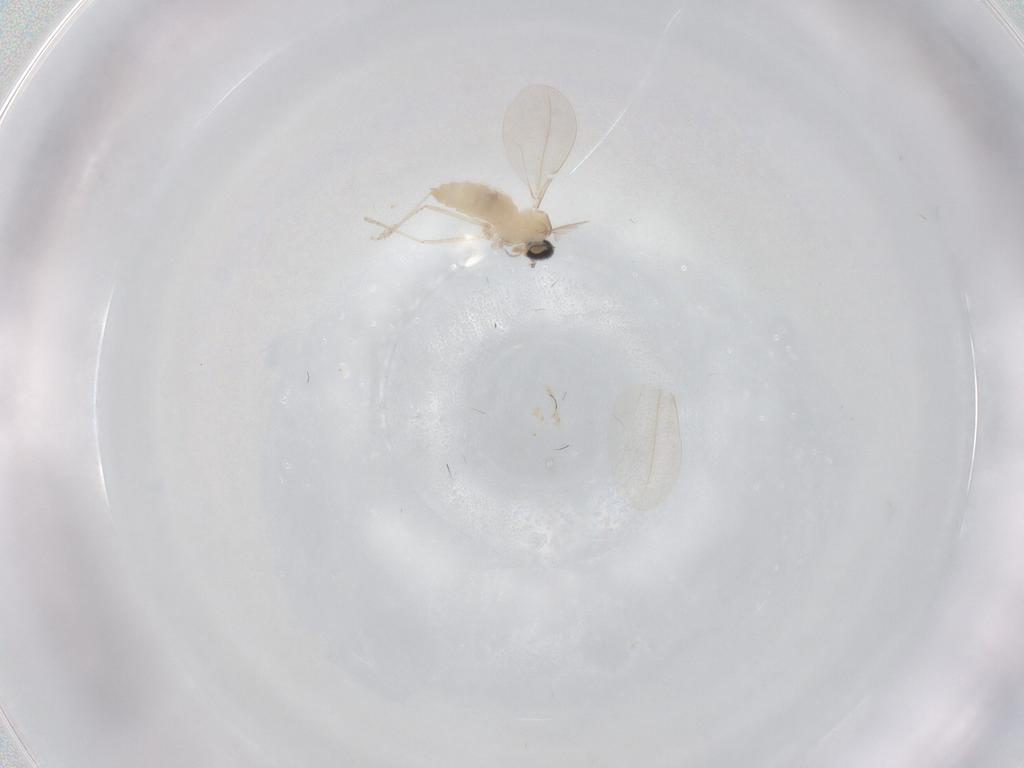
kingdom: Animalia
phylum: Arthropoda
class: Insecta
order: Diptera
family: Cecidomyiidae
